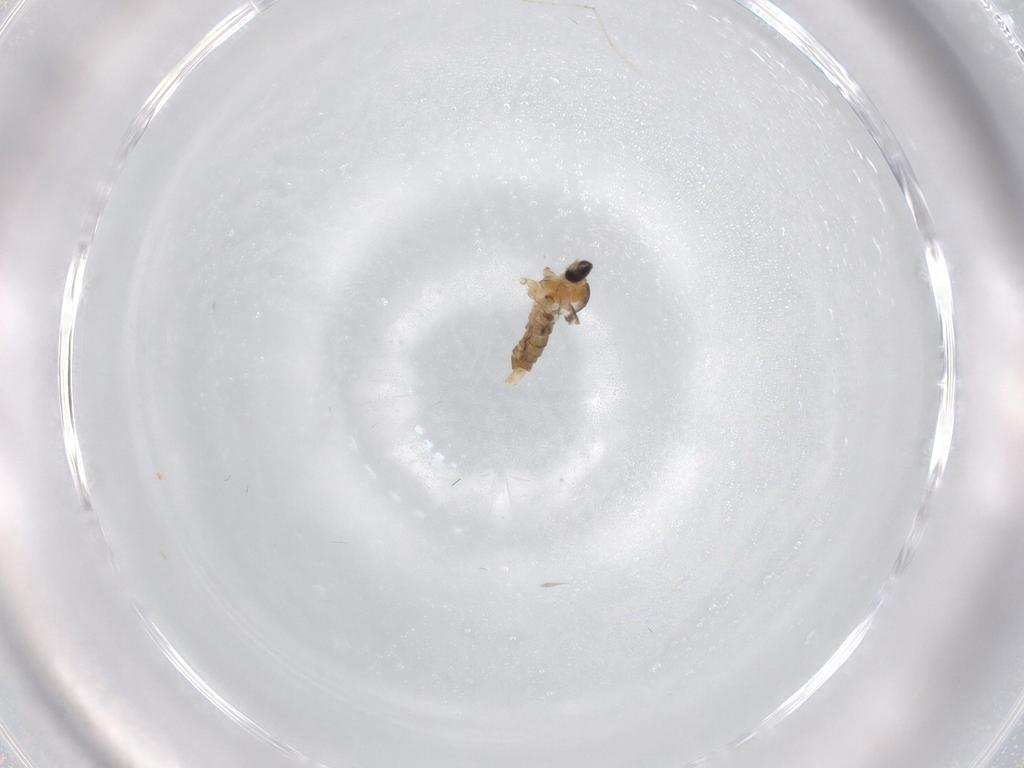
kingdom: Animalia
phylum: Arthropoda
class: Insecta
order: Diptera
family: Cecidomyiidae
